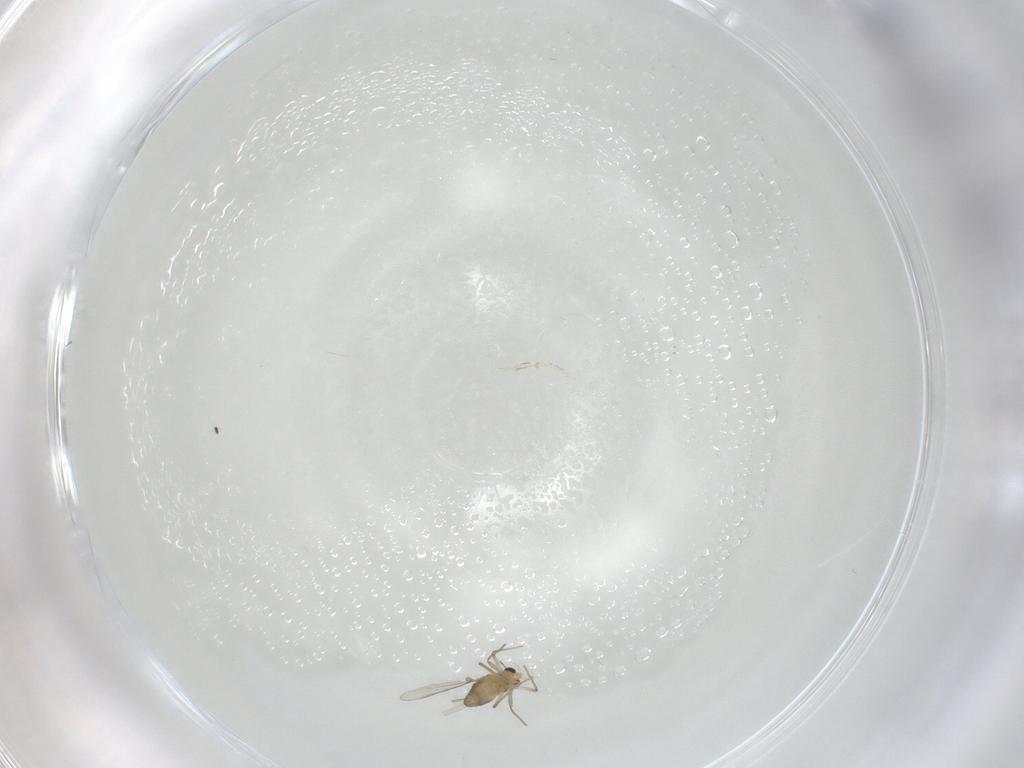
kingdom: Animalia
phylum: Arthropoda
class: Insecta
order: Diptera
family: Chironomidae
